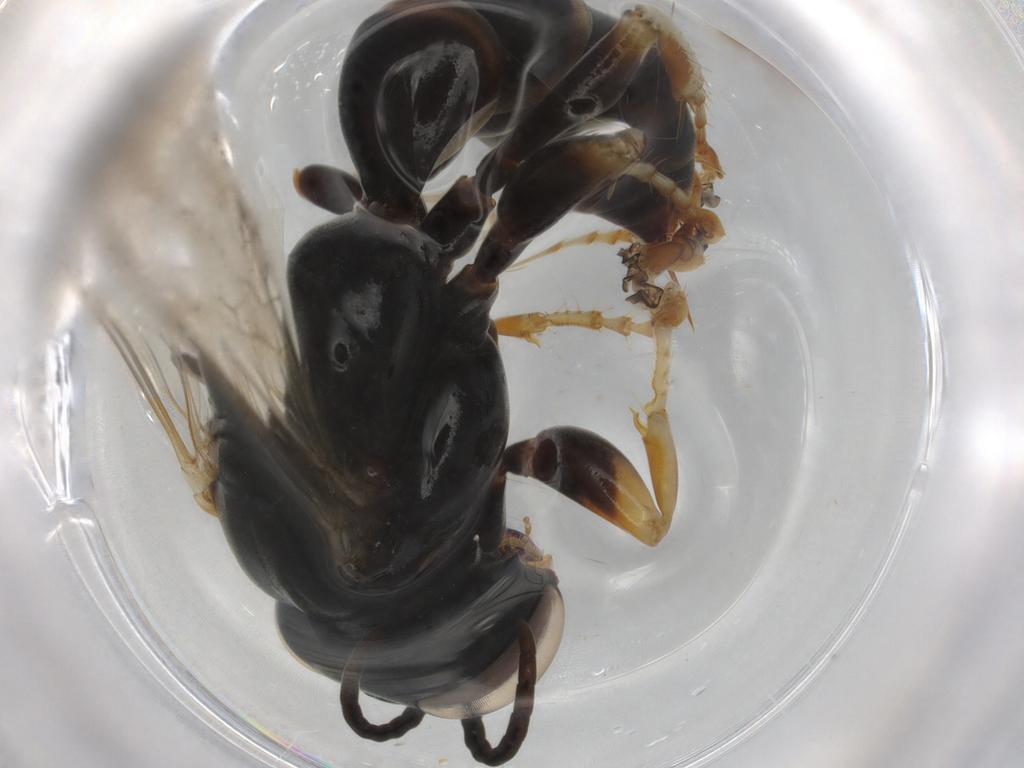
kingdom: Animalia
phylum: Arthropoda
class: Insecta
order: Hymenoptera
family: Crabronidae
